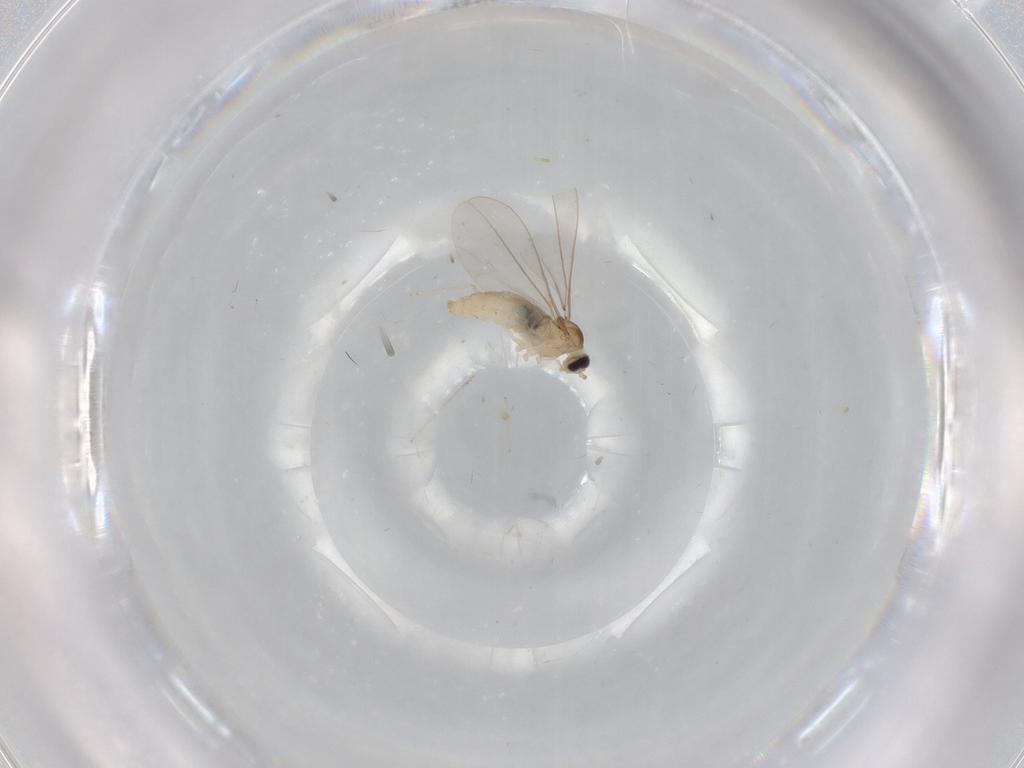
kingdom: Animalia
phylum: Arthropoda
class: Insecta
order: Diptera
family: Cecidomyiidae
